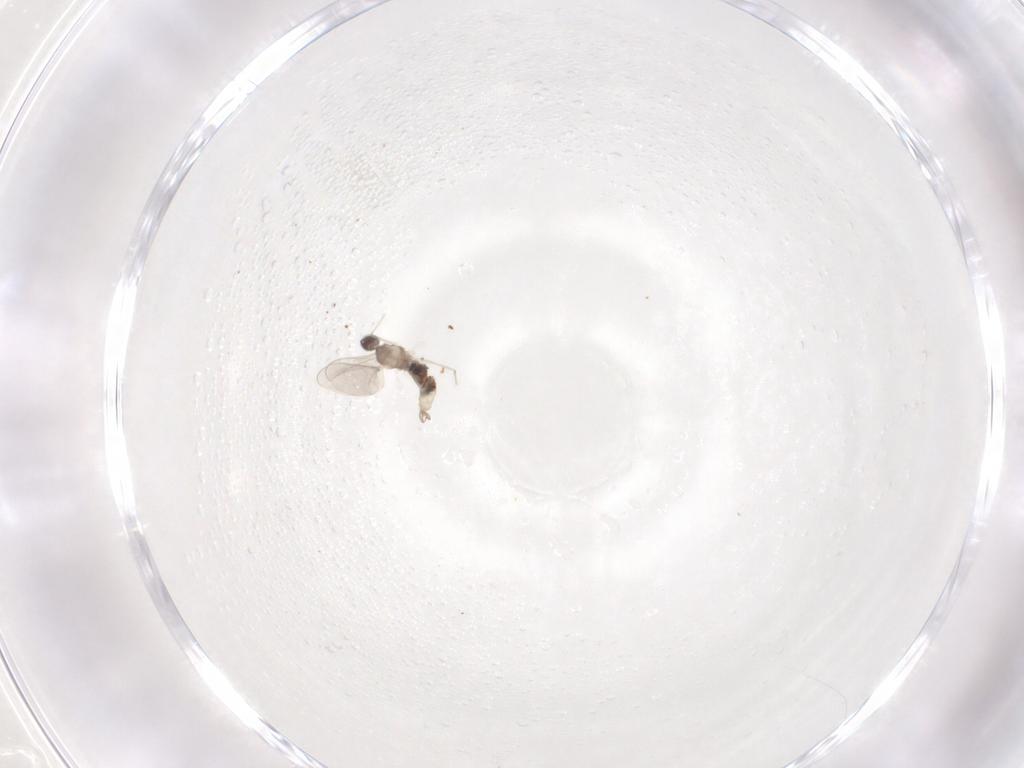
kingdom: Animalia
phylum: Arthropoda
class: Insecta
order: Diptera
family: Cecidomyiidae
